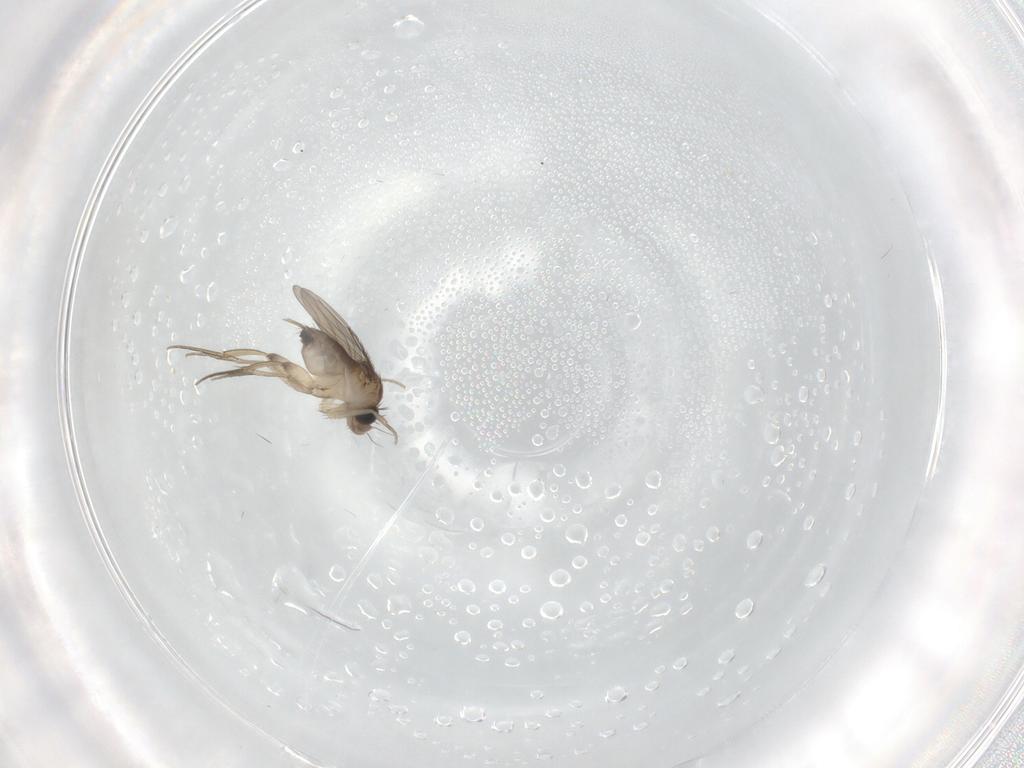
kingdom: Animalia
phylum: Arthropoda
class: Insecta
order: Diptera
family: Phoridae
